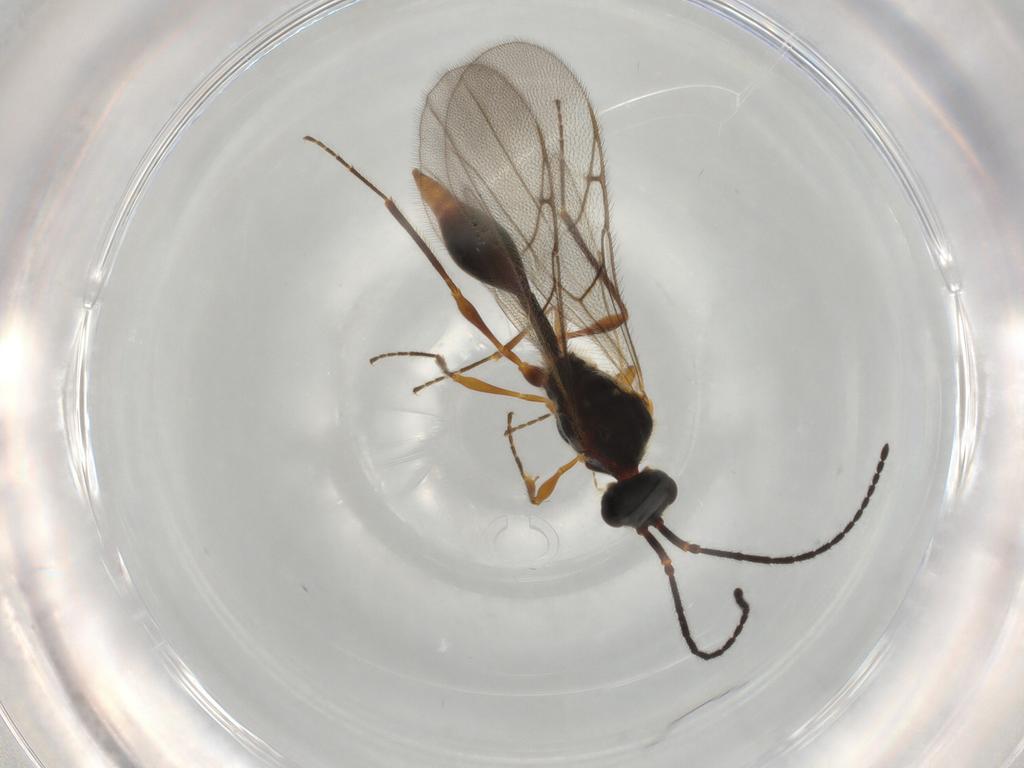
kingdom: Animalia
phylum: Arthropoda
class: Insecta
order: Hymenoptera
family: Diapriidae
